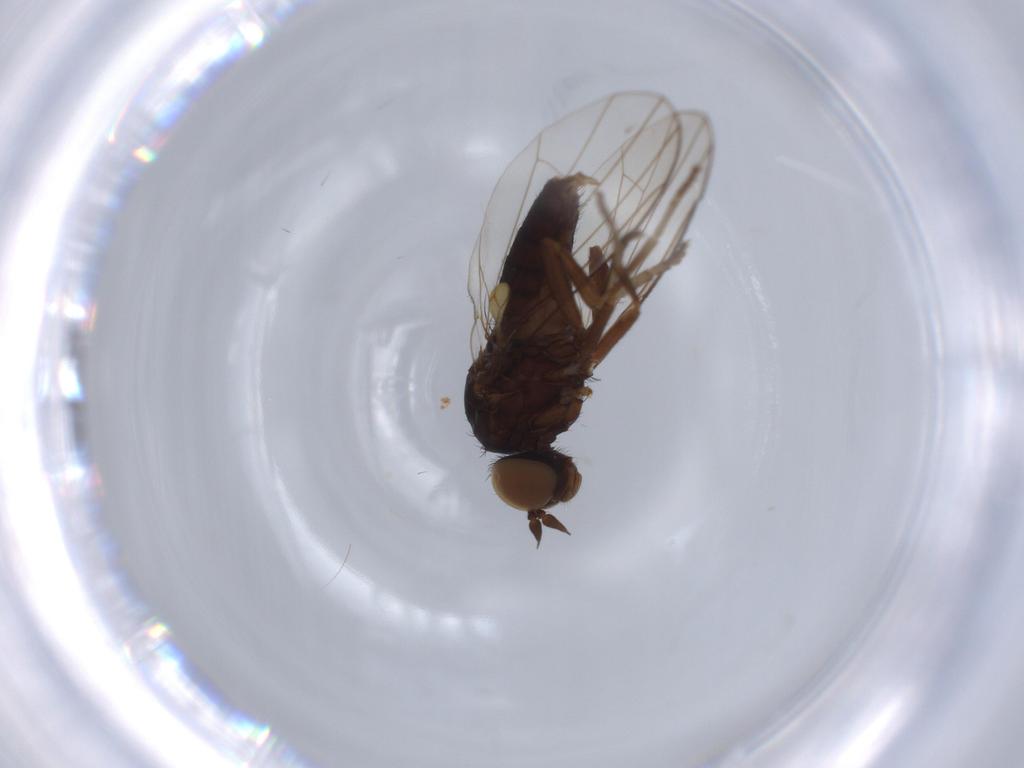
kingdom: Animalia
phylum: Arthropoda
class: Insecta
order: Diptera
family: Platypezidae
